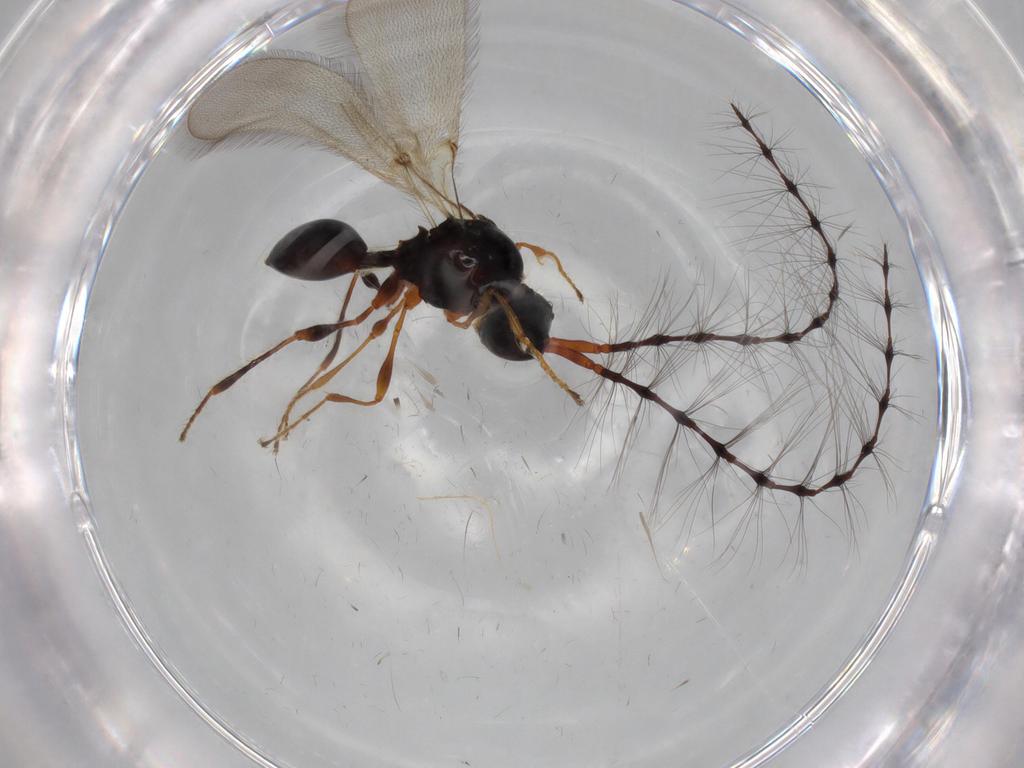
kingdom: Animalia
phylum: Arthropoda
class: Insecta
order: Hymenoptera
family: Diapriidae
